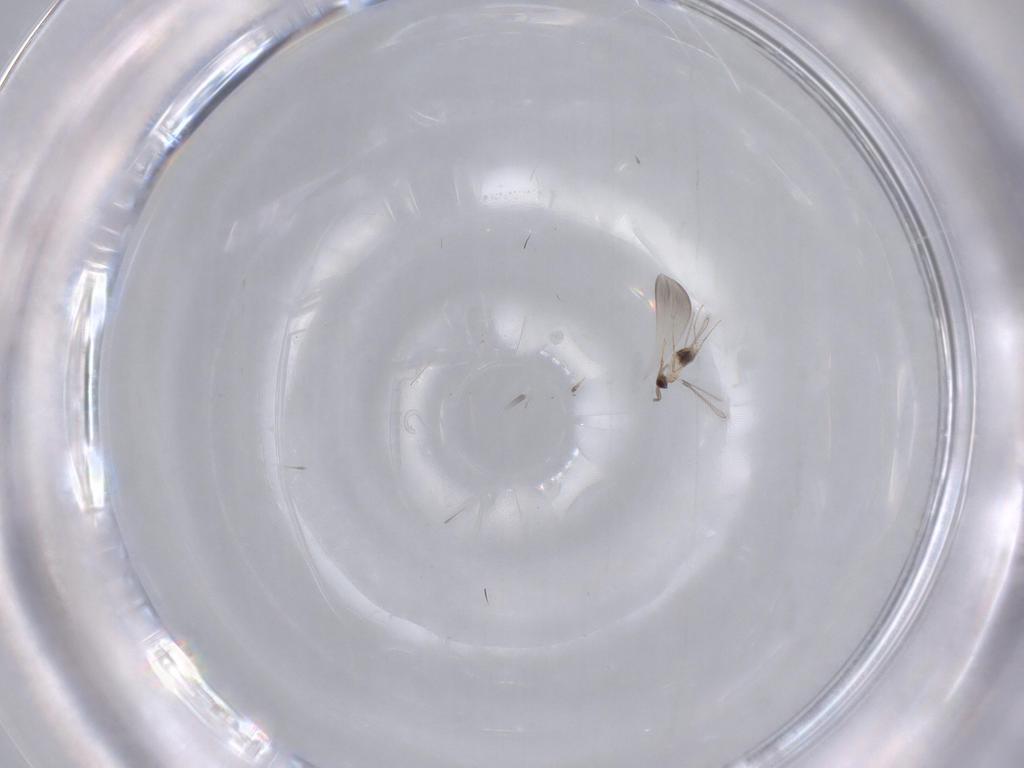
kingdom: Animalia
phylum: Arthropoda
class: Insecta
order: Hymenoptera
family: Mymaridae
